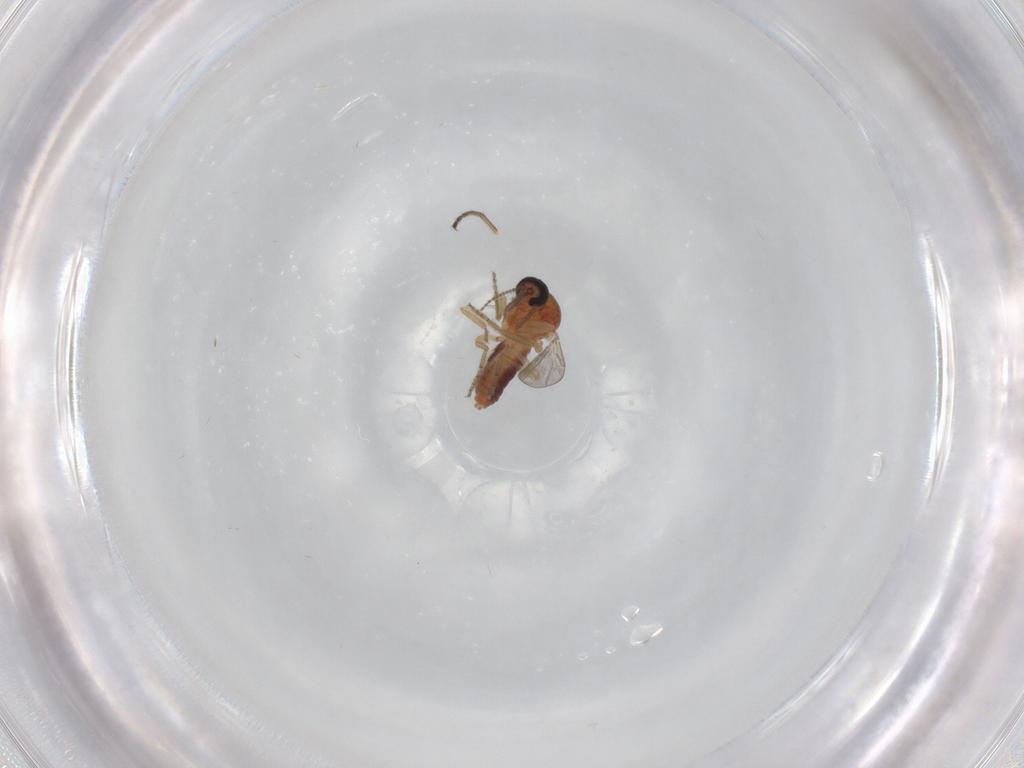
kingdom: Animalia
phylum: Arthropoda
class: Insecta
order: Diptera
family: Ceratopogonidae
